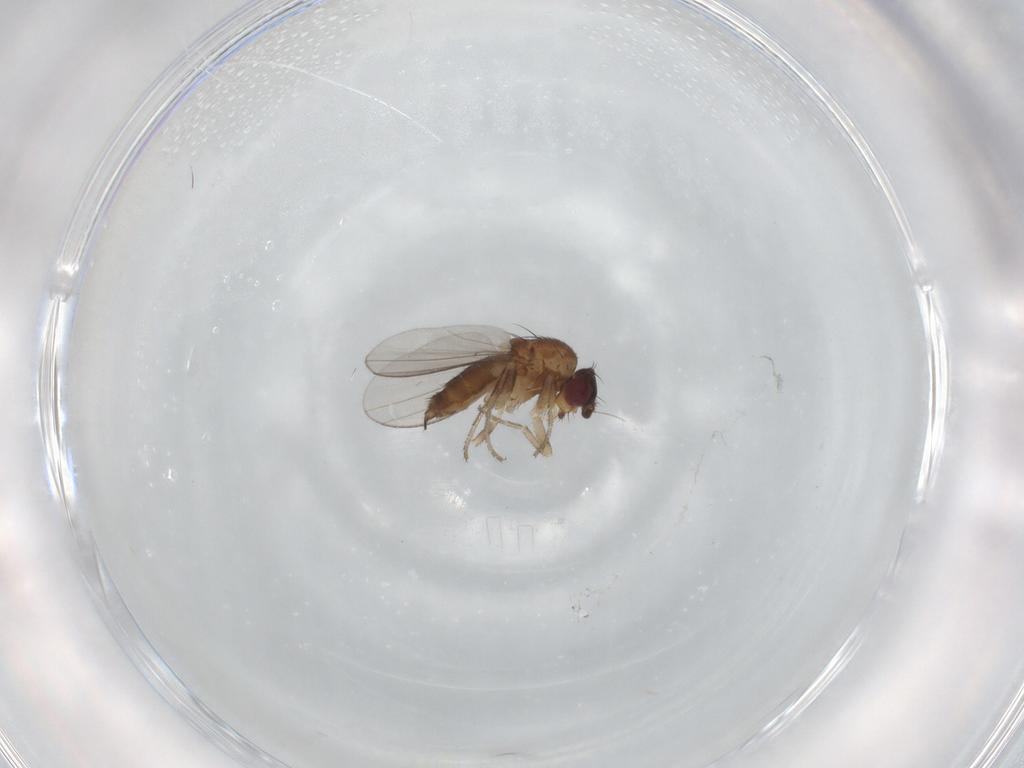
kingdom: Animalia
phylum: Arthropoda
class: Insecta
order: Diptera
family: Milichiidae
